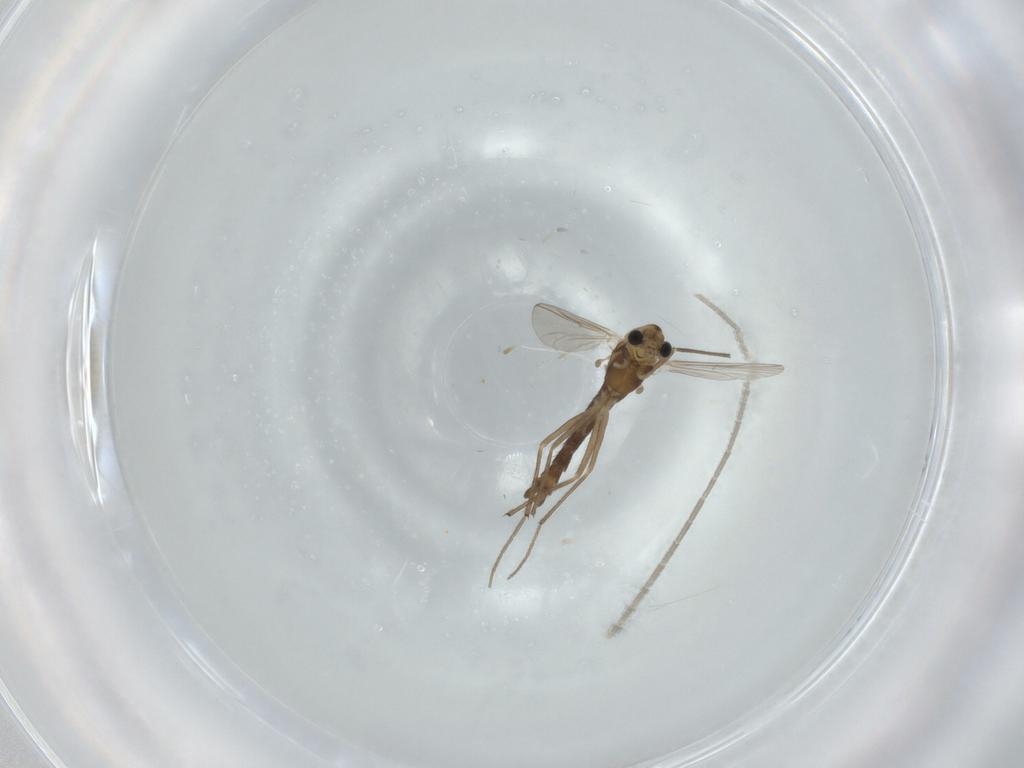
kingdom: Animalia
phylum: Arthropoda
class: Insecta
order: Diptera
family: Chironomidae
